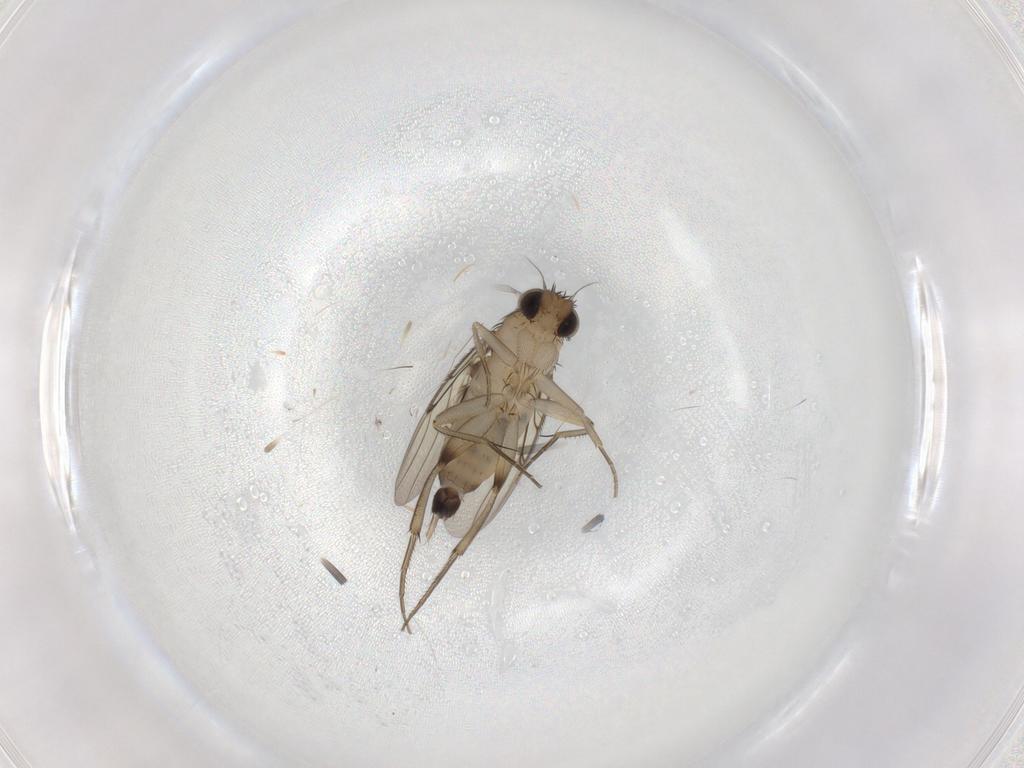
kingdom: Animalia
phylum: Arthropoda
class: Insecta
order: Diptera
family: Phoridae
